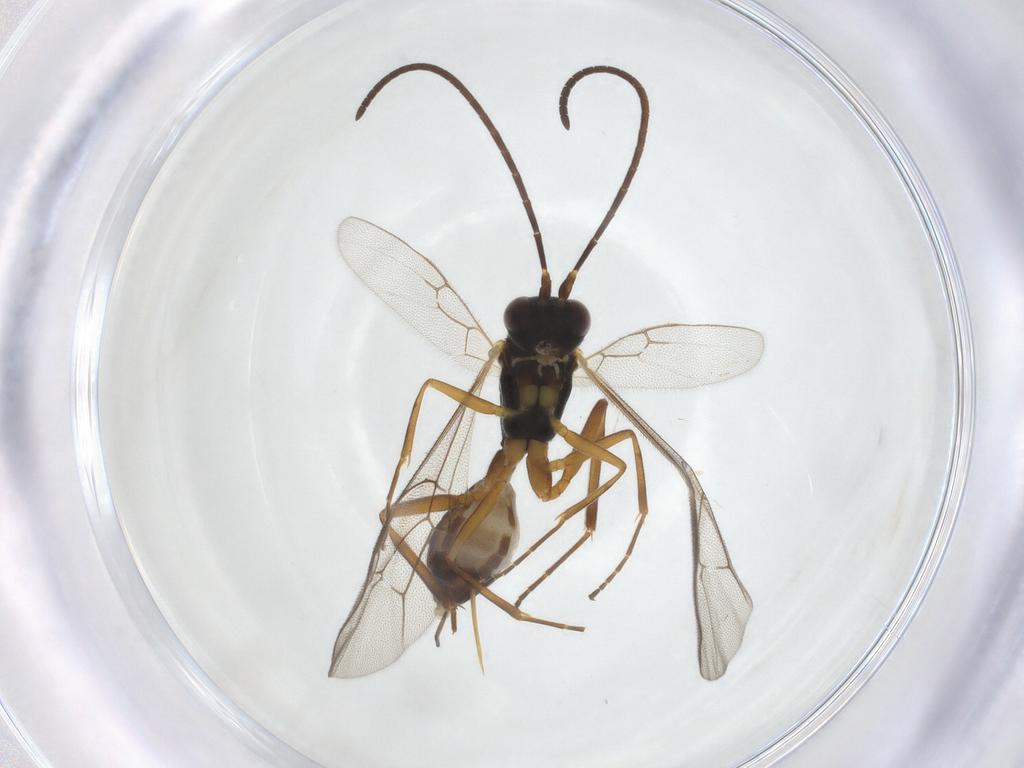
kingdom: Animalia
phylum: Arthropoda
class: Insecta
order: Hymenoptera
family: Ichneumonidae
